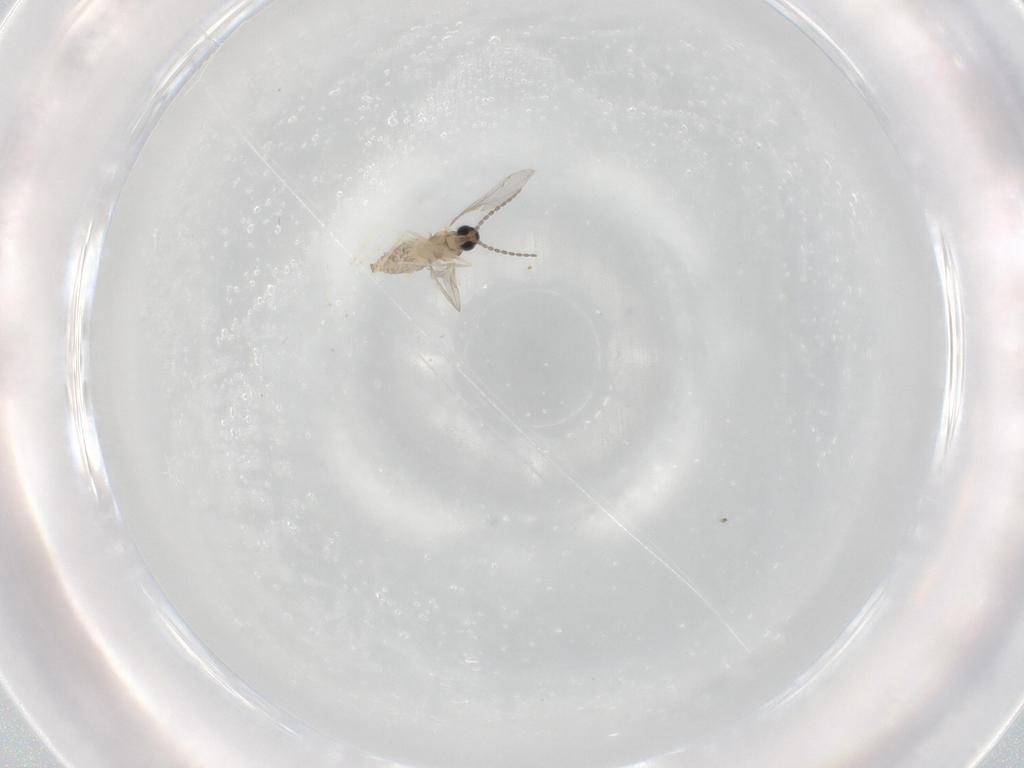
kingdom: Animalia
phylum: Arthropoda
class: Insecta
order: Diptera
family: Cecidomyiidae
